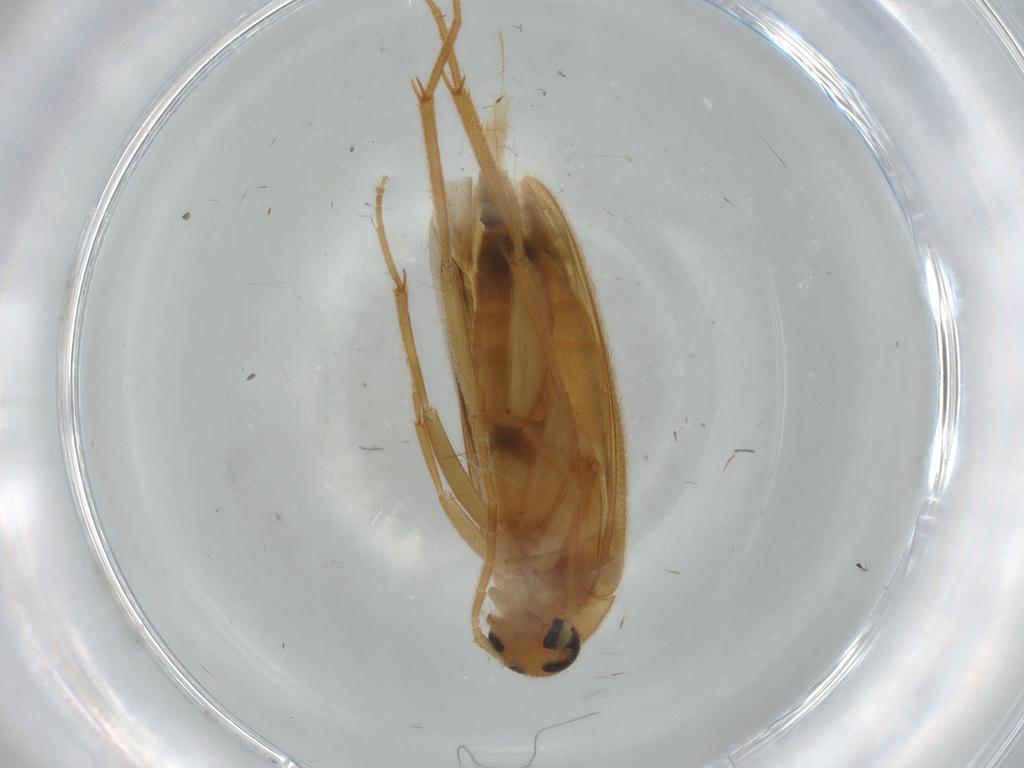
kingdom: Animalia
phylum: Arthropoda
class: Insecta
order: Coleoptera
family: Scraptiidae
